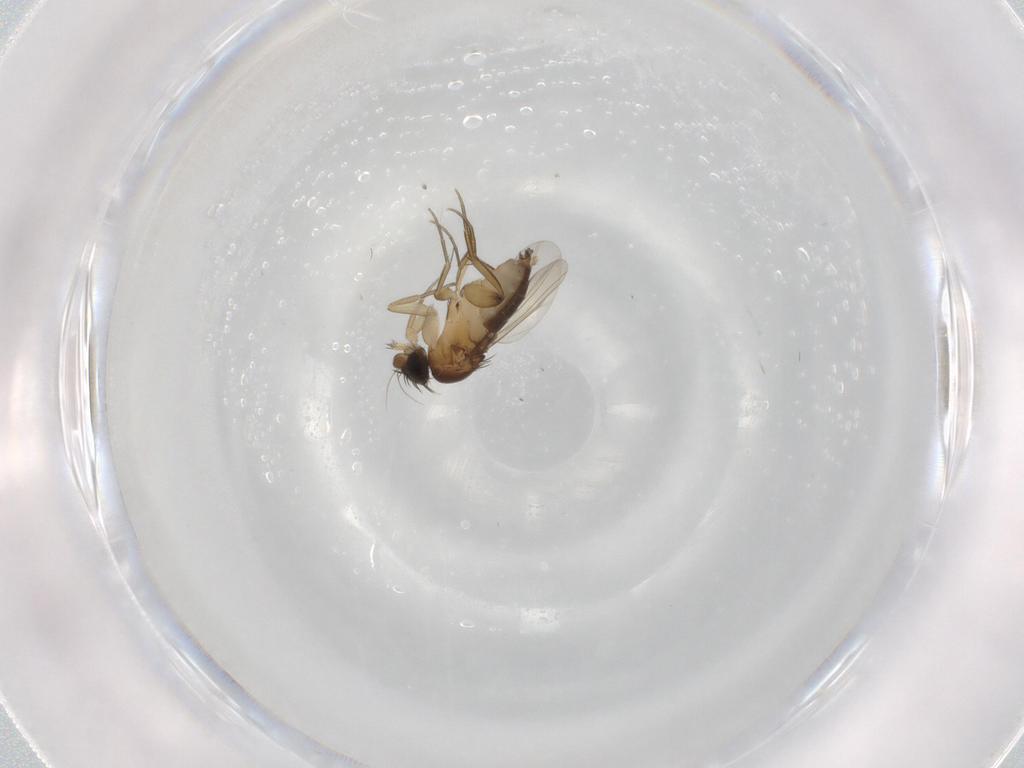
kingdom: Animalia
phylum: Arthropoda
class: Insecta
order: Diptera
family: Phoridae
